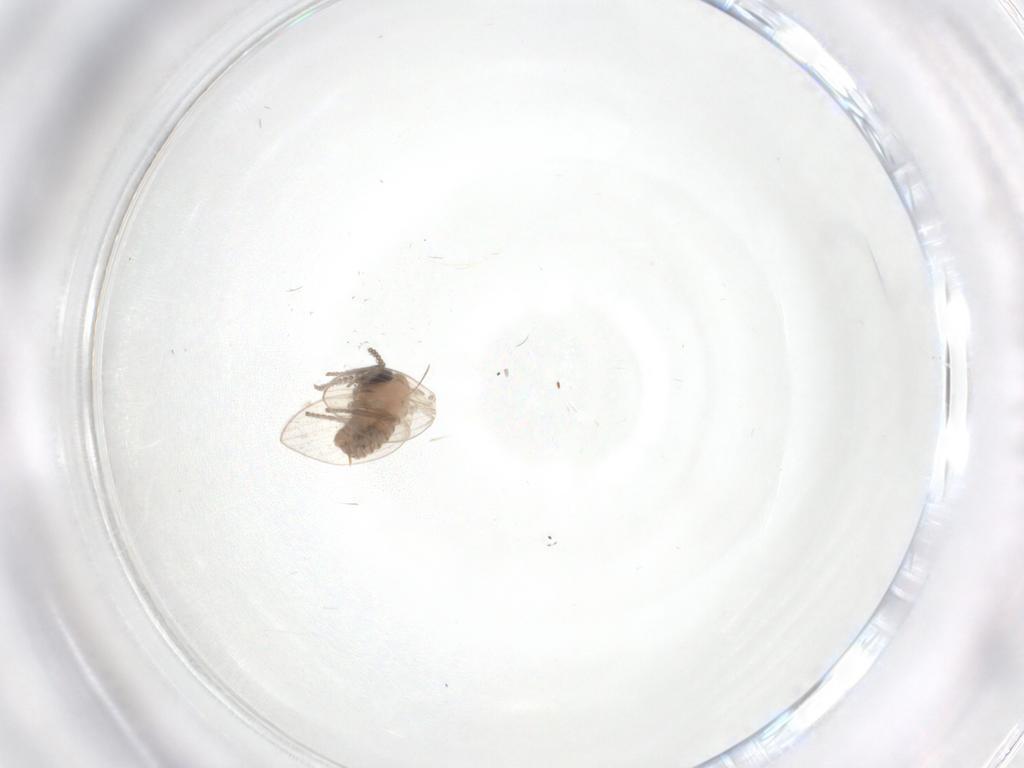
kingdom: Animalia
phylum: Arthropoda
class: Insecta
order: Diptera
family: Psychodidae
